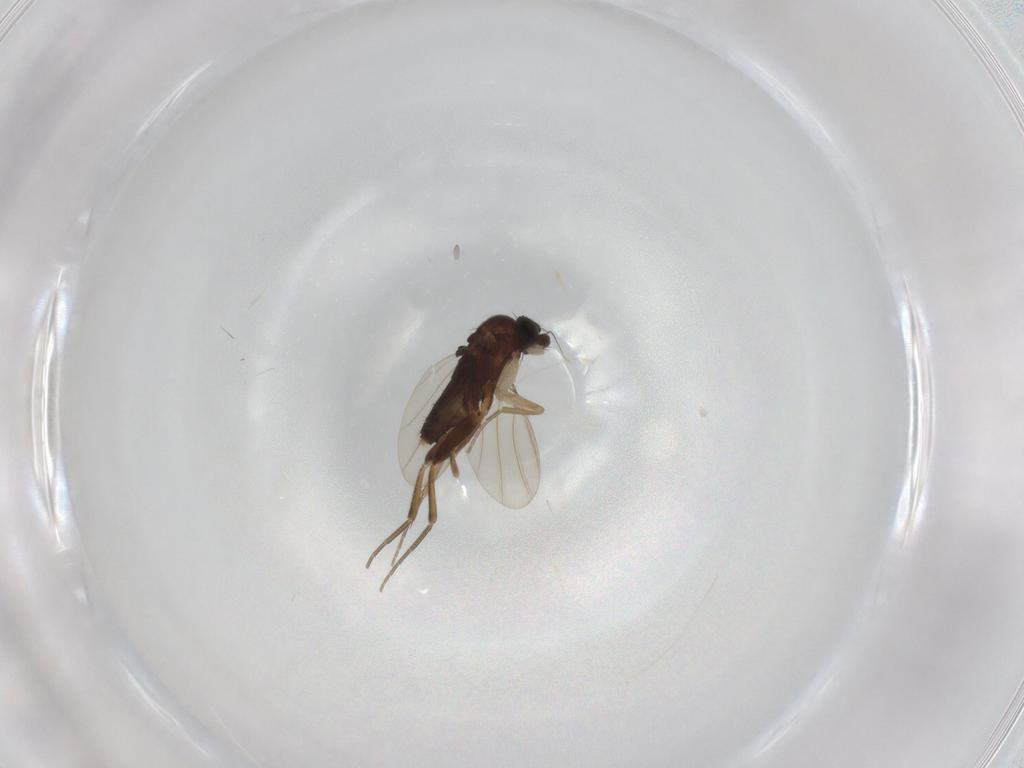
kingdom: Animalia
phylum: Arthropoda
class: Insecta
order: Diptera
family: Phoridae
